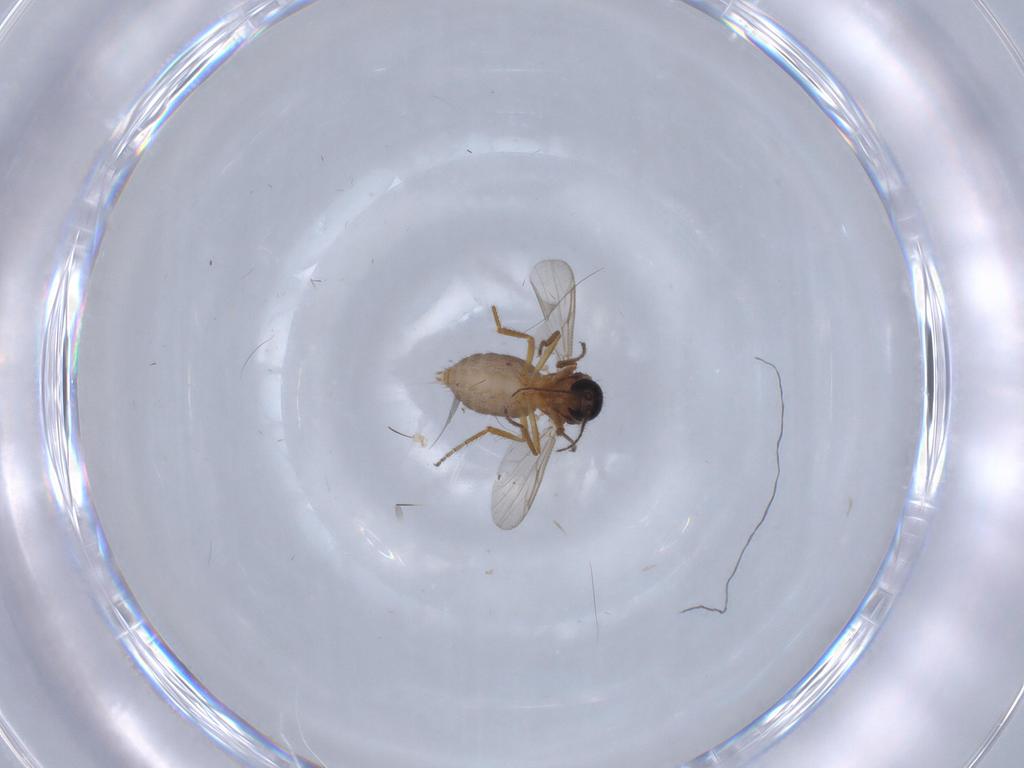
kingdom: Animalia
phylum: Arthropoda
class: Insecta
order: Diptera
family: Ceratopogonidae
